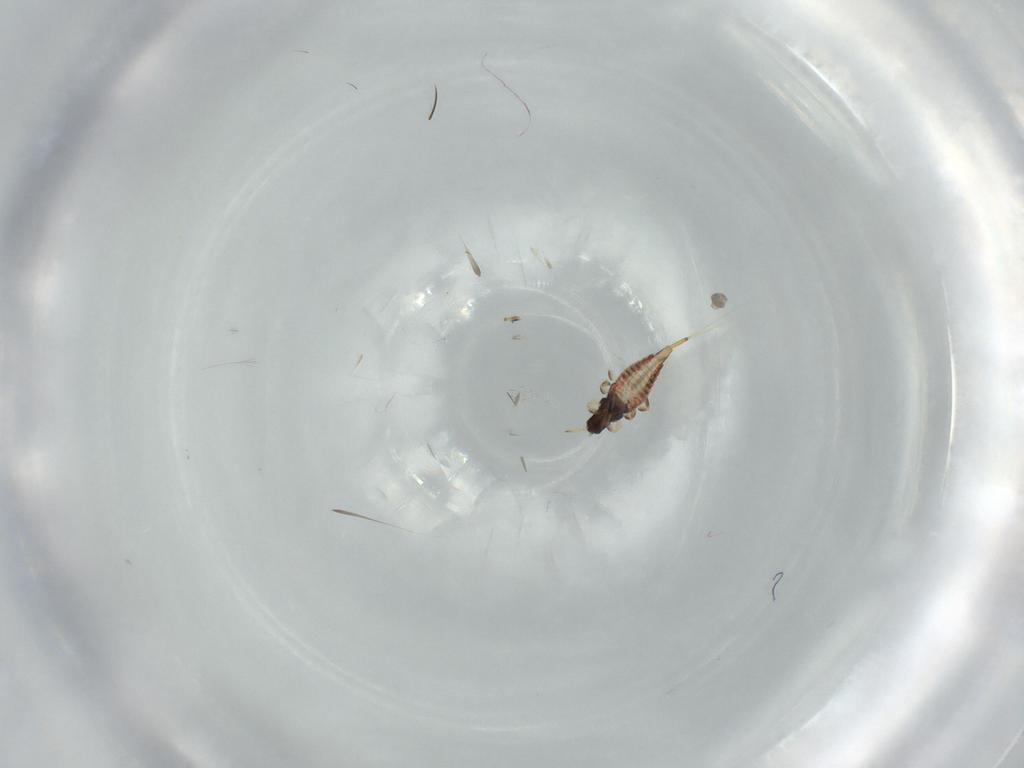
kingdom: Animalia
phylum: Arthropoda
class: Insecta
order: Thysanoptera
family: Phlaeothripidae
